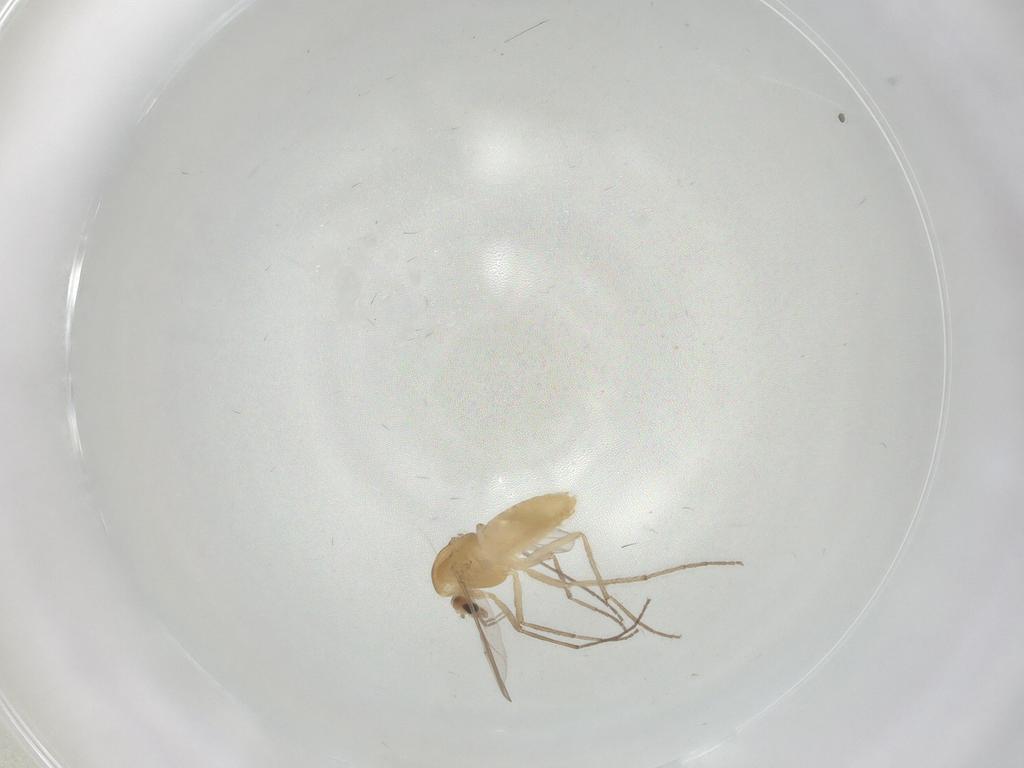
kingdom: Animalia
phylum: Arthropoda
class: Insecta
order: Diptera
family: Chironomidae
